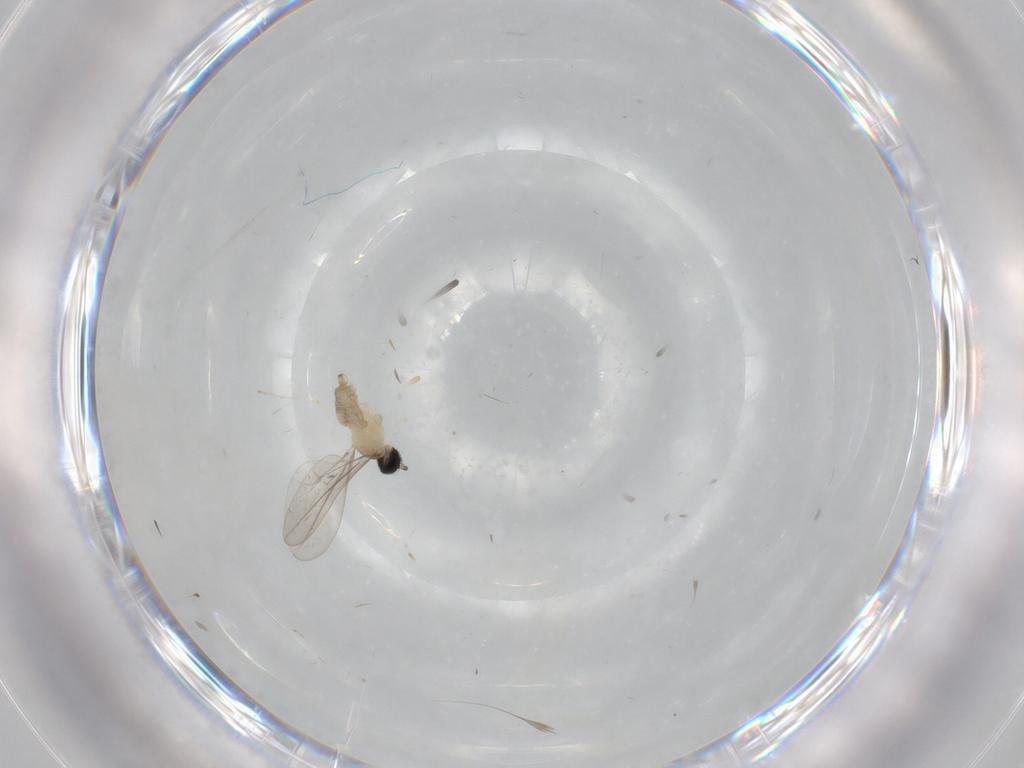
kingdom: Animalia
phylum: Arthropoda
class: Insecta
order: Diptera
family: Cecidomyiidae
